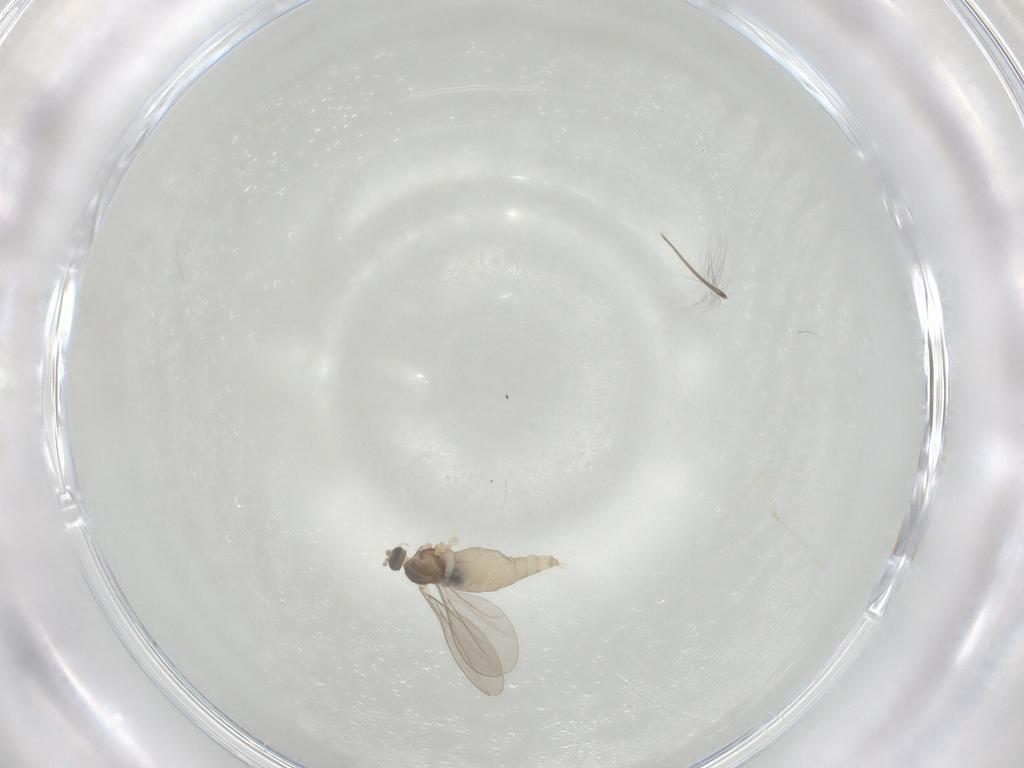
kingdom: Animalia
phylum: Arthropoda
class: Insecta
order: Diptera
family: Cecidomyiidae
